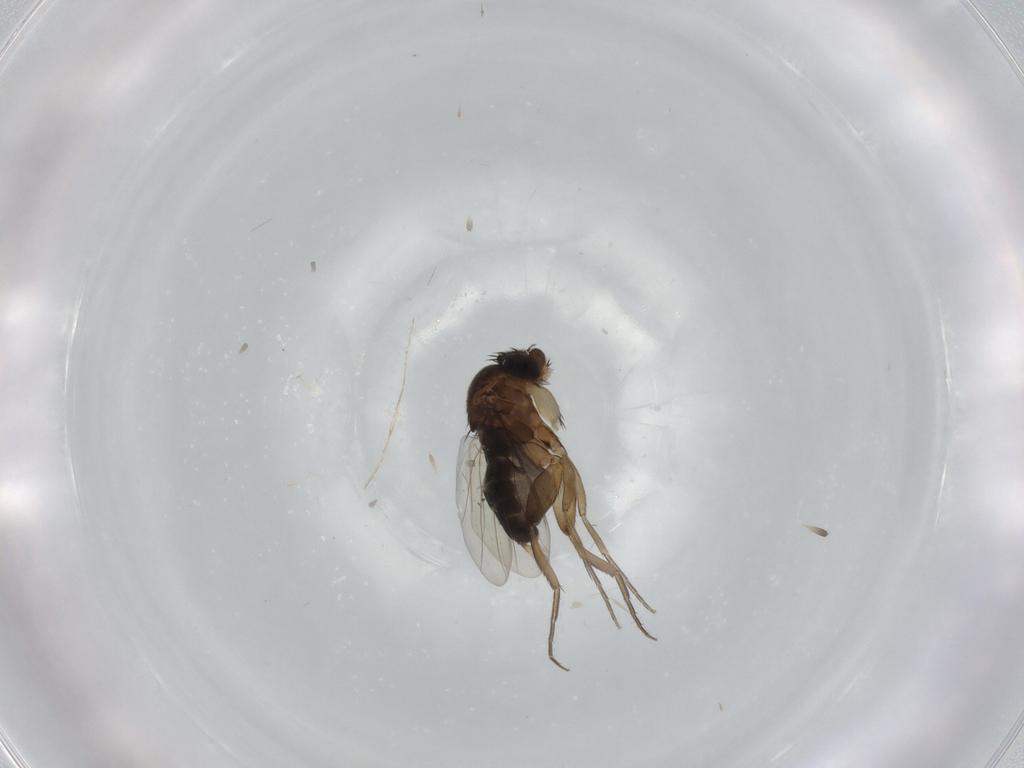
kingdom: Animalia
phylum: Arthropoda
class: Insecta
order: Diptera
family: Phoridae
